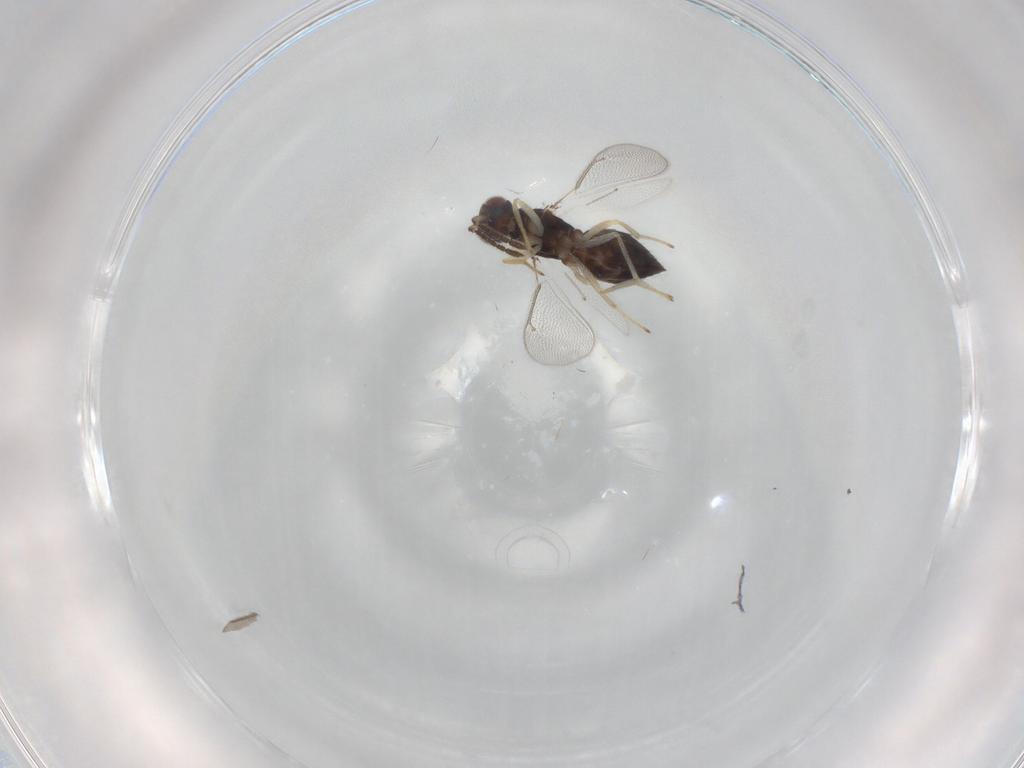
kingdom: Animalia
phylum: Arthropoda
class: Insecta
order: Hymenoptera
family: Eulophidae
